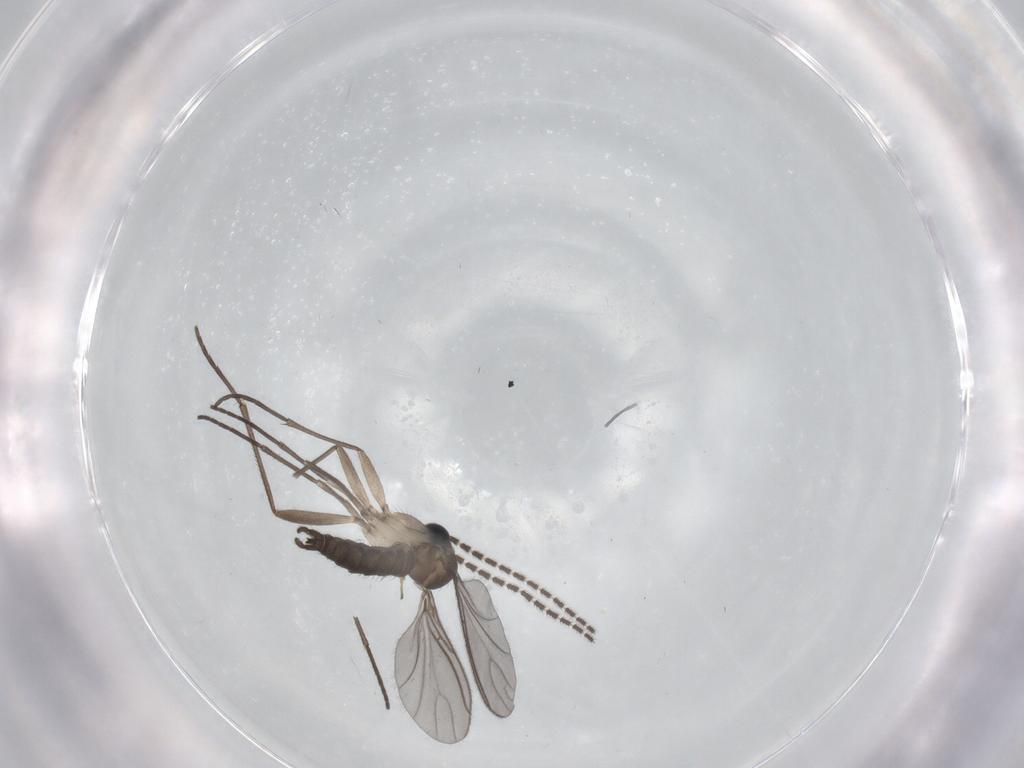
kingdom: Animalia
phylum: Arthropoda
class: Insecta
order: Diptera
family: Sciaridae
